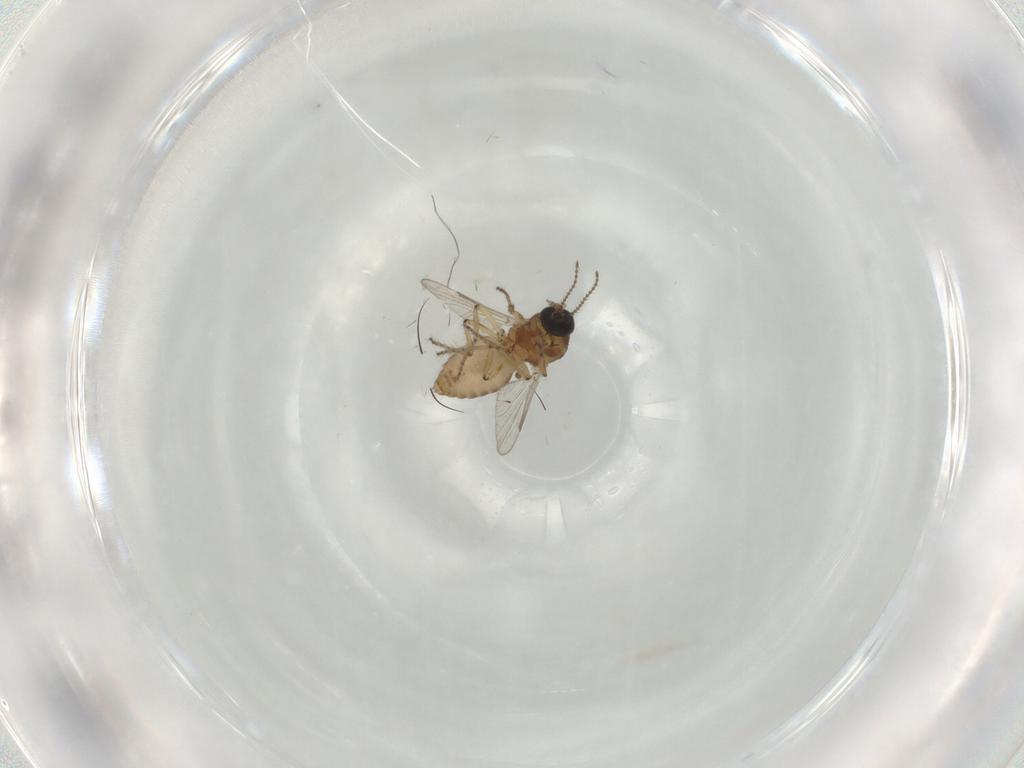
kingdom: Animalia
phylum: Arthropoda
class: Insecta
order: Diptera
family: Ceratopogonidae
